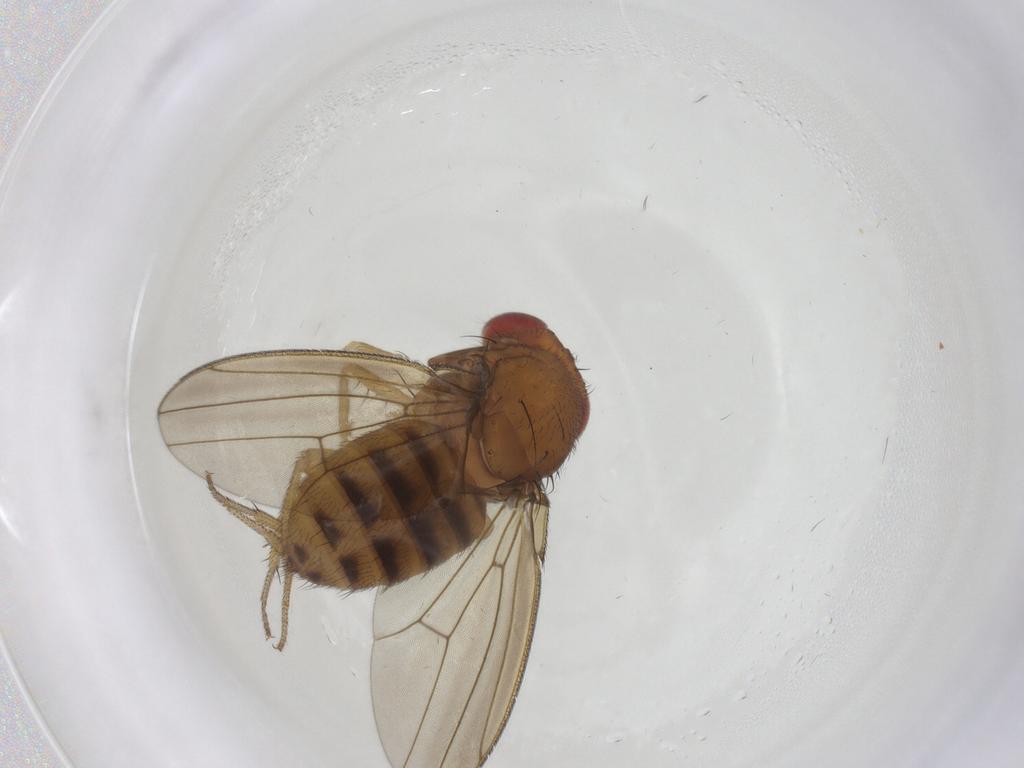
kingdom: Animalia
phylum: Arthropoda
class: Insecta
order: Diptera
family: Drosophilidae
